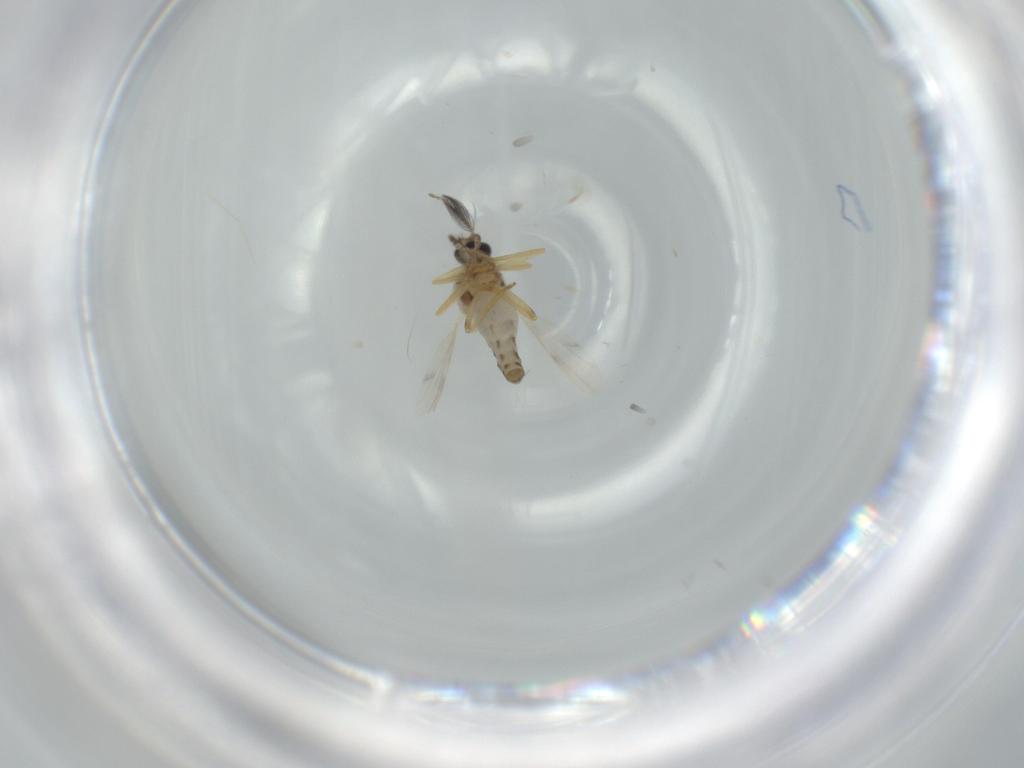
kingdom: Animalia
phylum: Arthropoda
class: Insecta
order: Diptera
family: Ceratopogonidae
